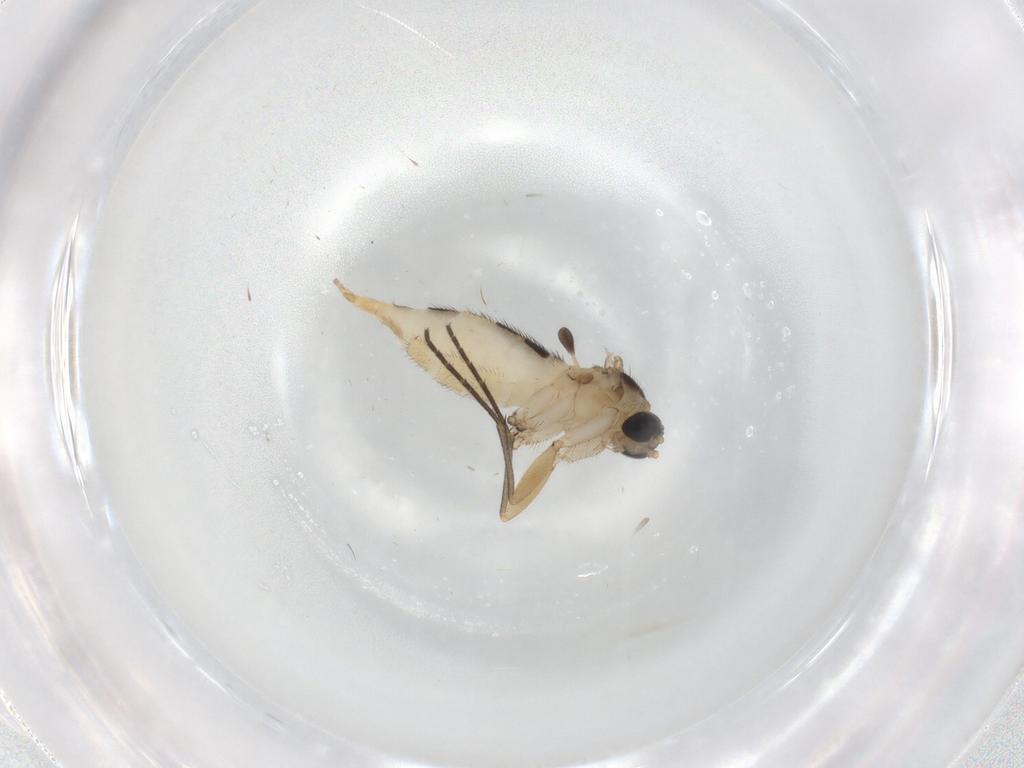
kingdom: Animalia
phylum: Arthropoda
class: Insecta
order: Diptera
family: Sciaridae
